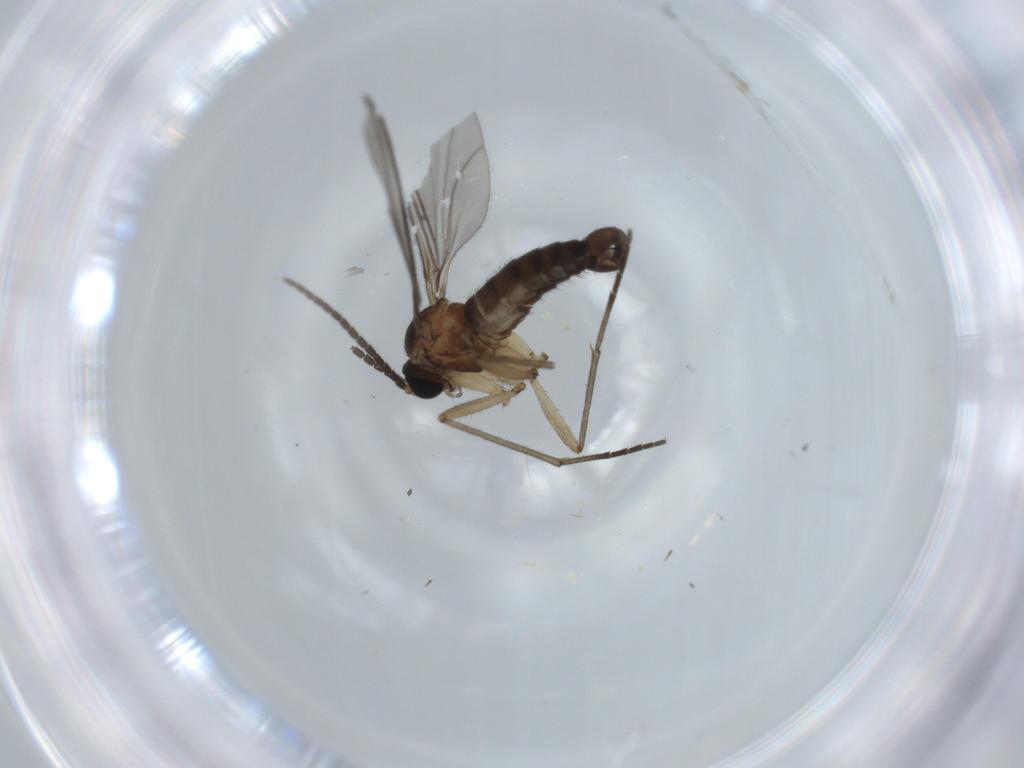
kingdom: Animalia
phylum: Arthropoda
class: Insecta
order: Diptera
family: Sciaridae
